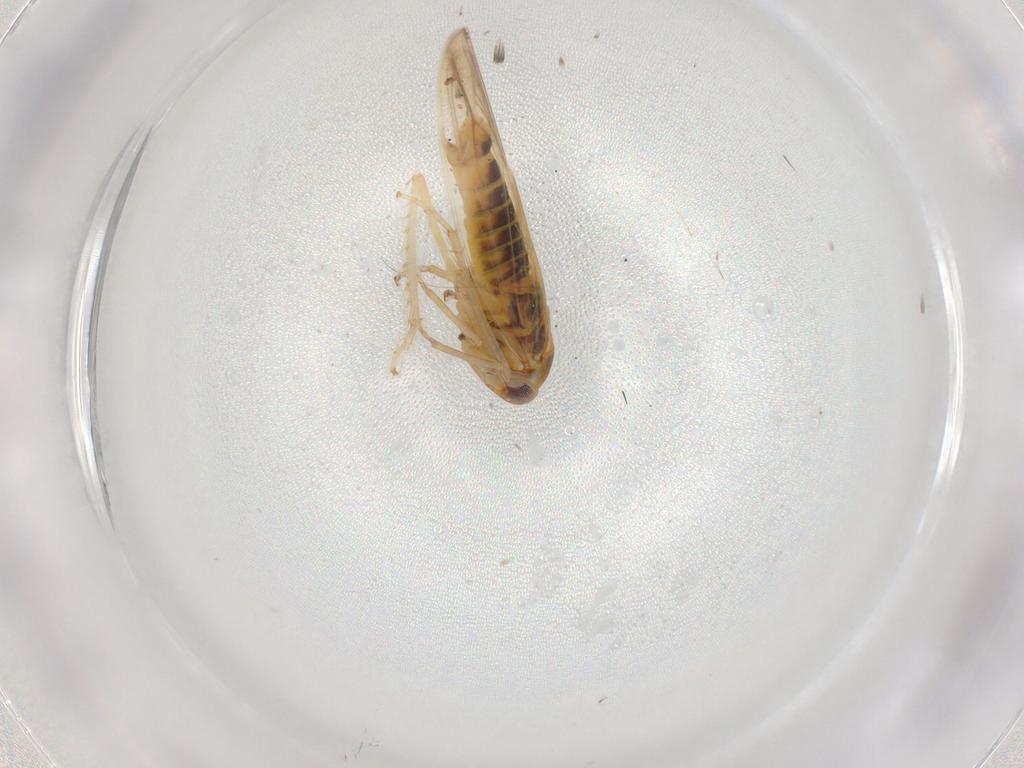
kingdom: Animalia
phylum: Arthropoda
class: Insecta
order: Hemiptera
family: Cicadellidae
